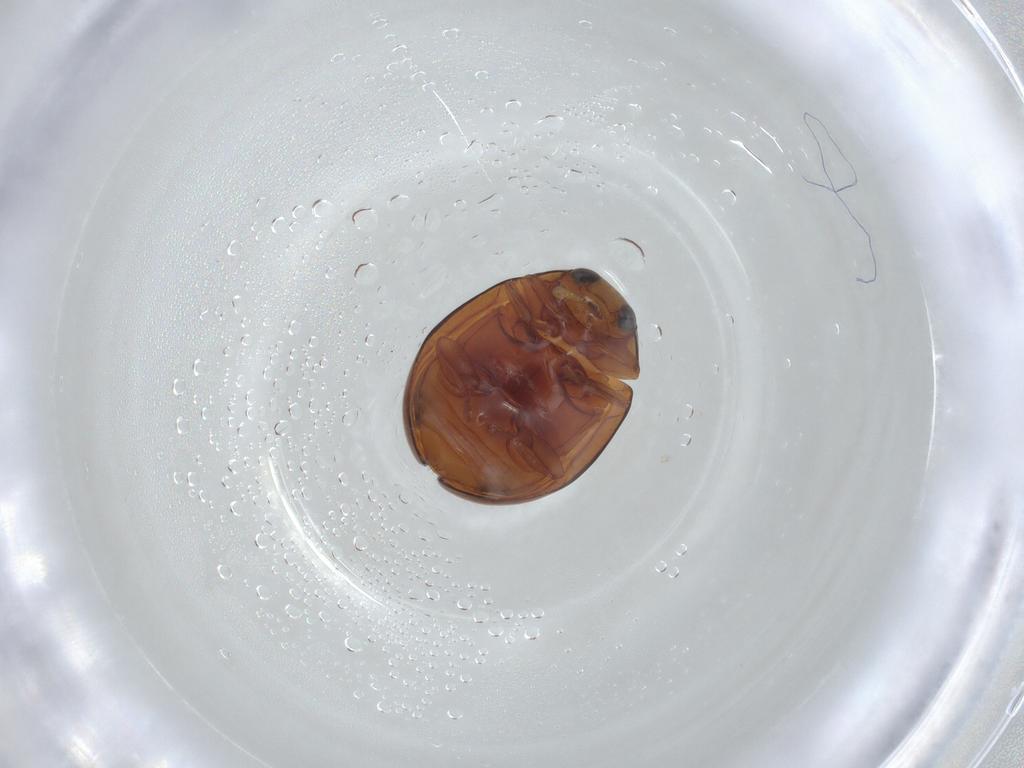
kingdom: Animalia
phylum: Arthropoda
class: Insecta
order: Coleoptera
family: Coccinellidae
